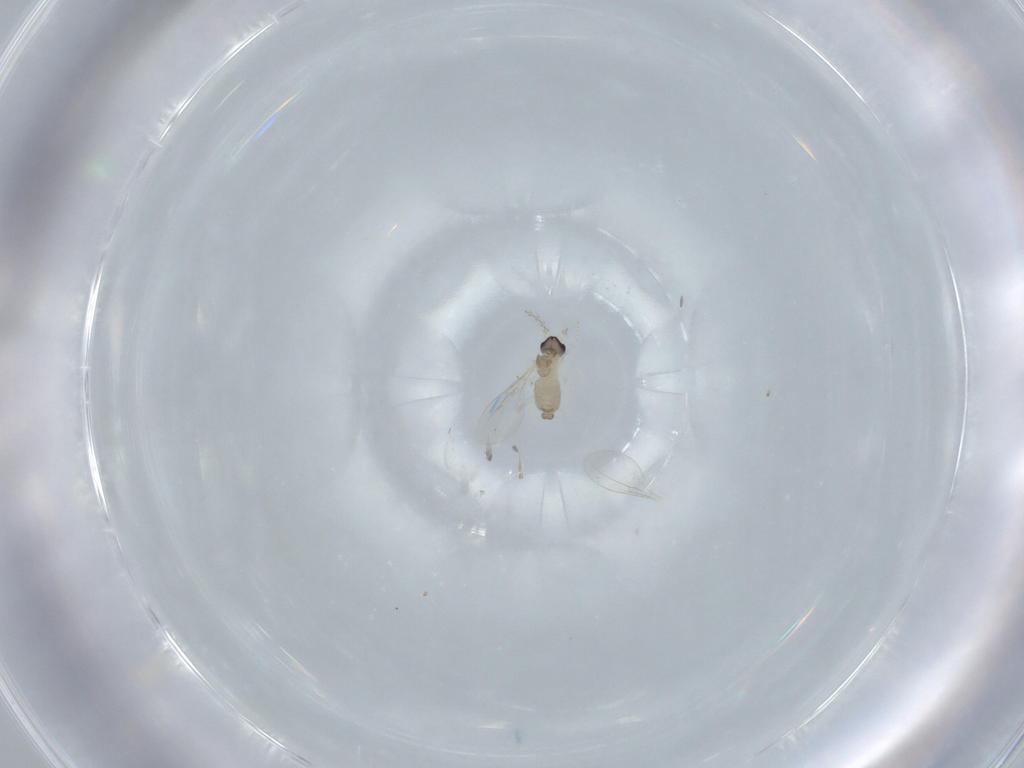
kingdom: Animalia
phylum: Arthropoda
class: Insecta
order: Diptera
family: Cecidomyiidae
